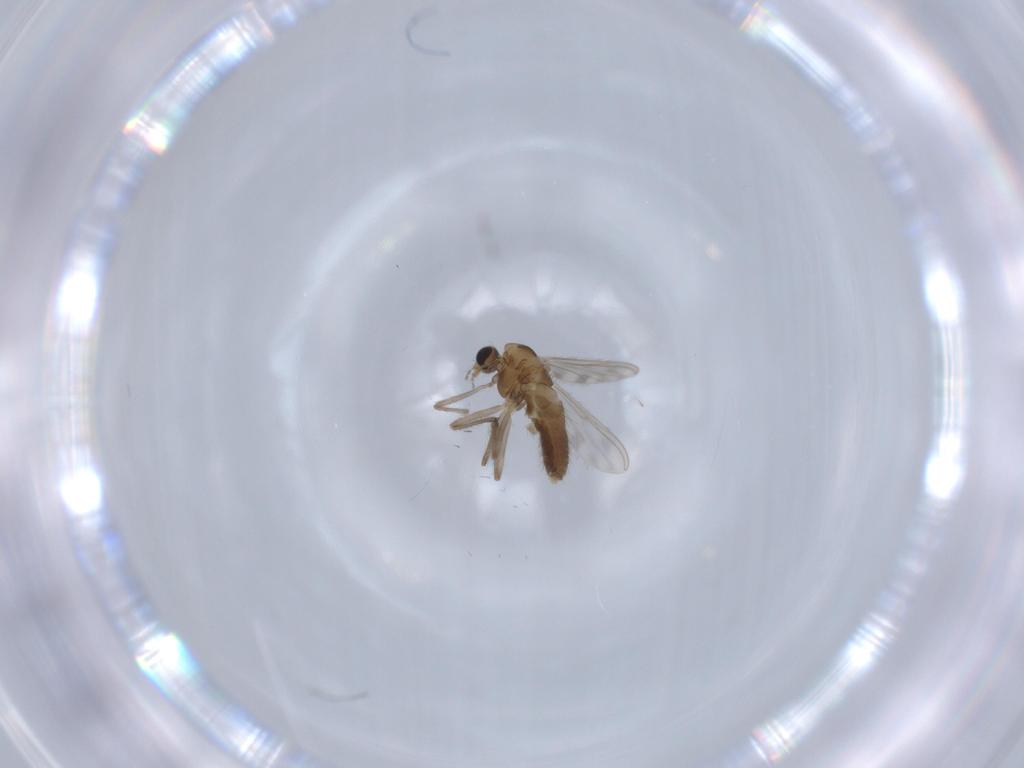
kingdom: Animalia
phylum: Arthropoda
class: Insecta
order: Diptera
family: Chironomidae
